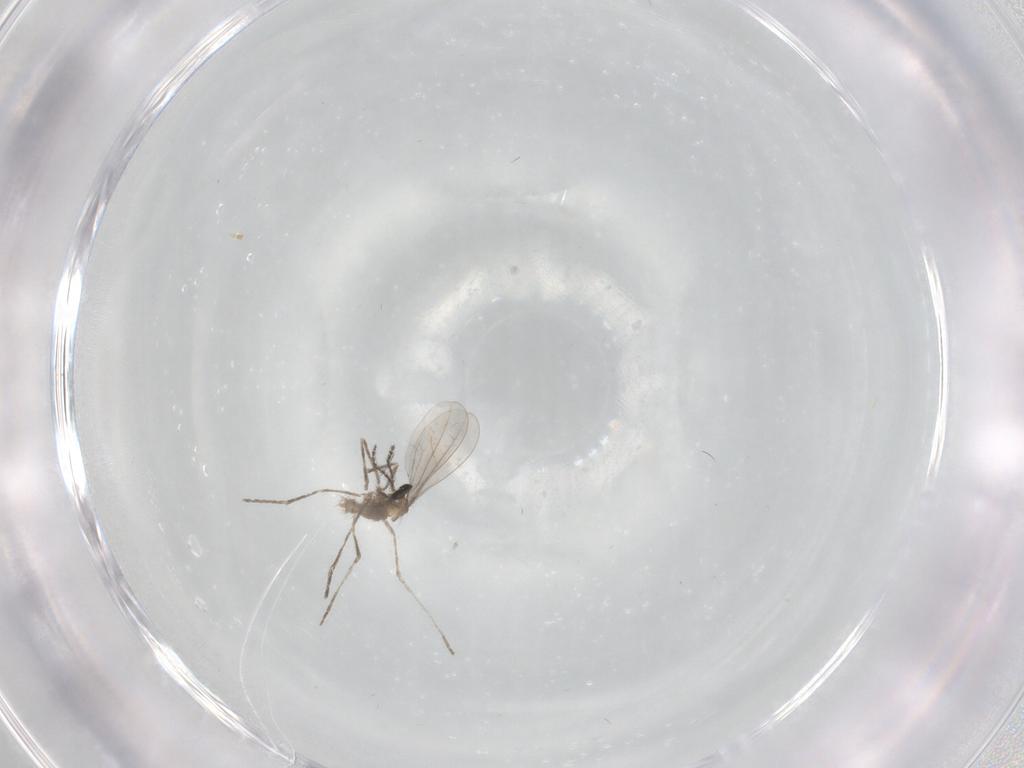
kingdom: Animalia
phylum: Arthropoda
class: Insecta
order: Diptera
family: Cecidomyiidae
